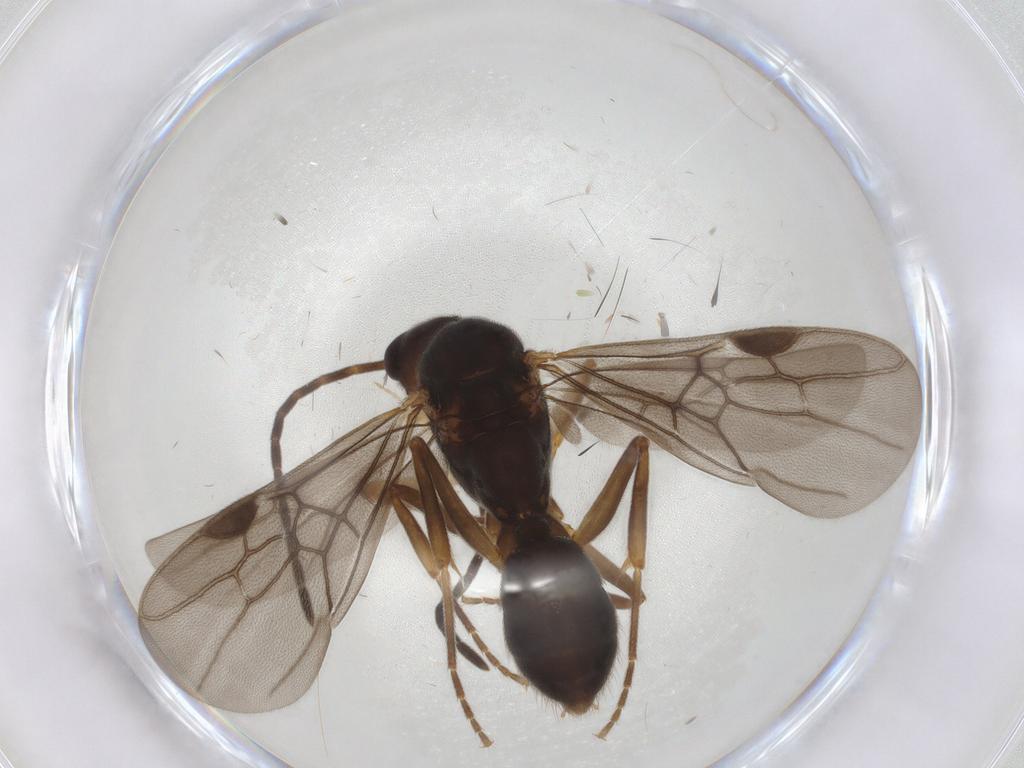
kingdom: Animalia
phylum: Arthropoda
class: Insecta
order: Hymenoptera
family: Formicidae
